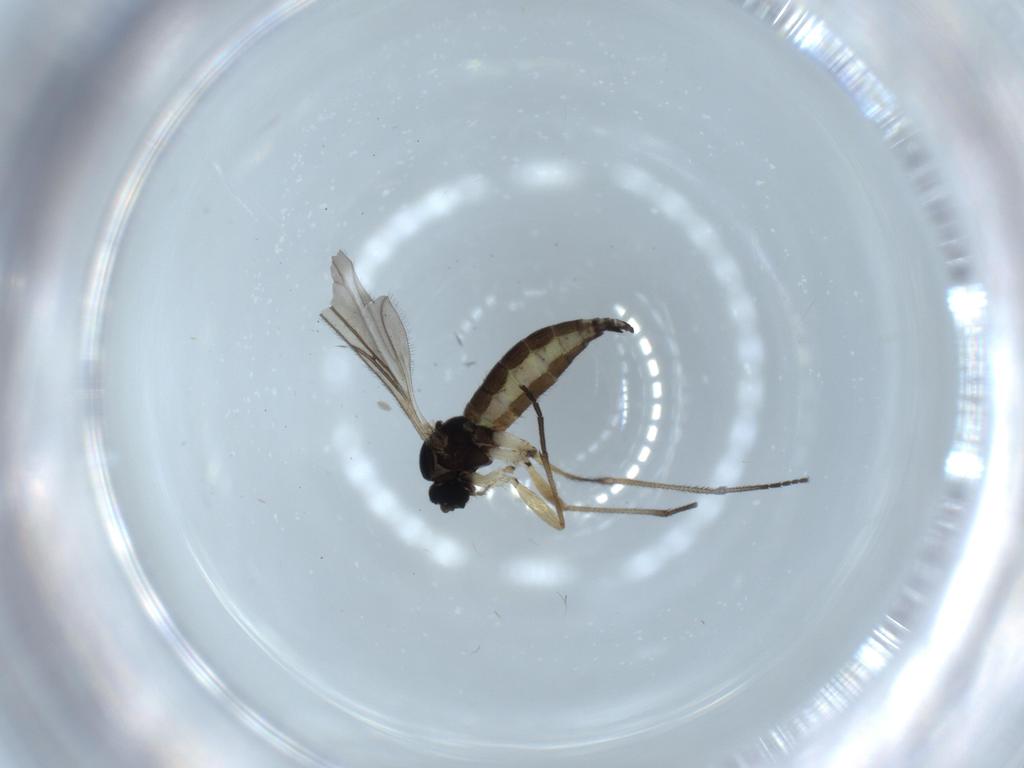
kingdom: Animalia
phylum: Arthropoda
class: Insecta
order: Diptera
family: Sciaridae
